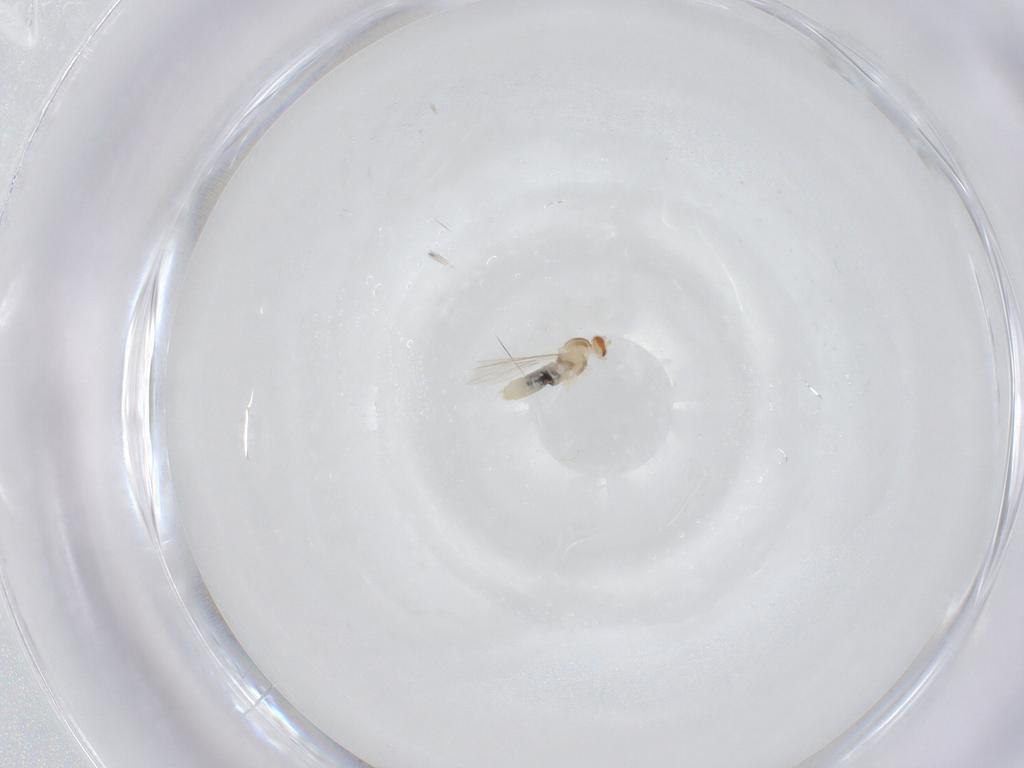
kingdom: Animalia
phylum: Arthropoda
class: Insecta
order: Diptera
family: Cecidomyiidae
